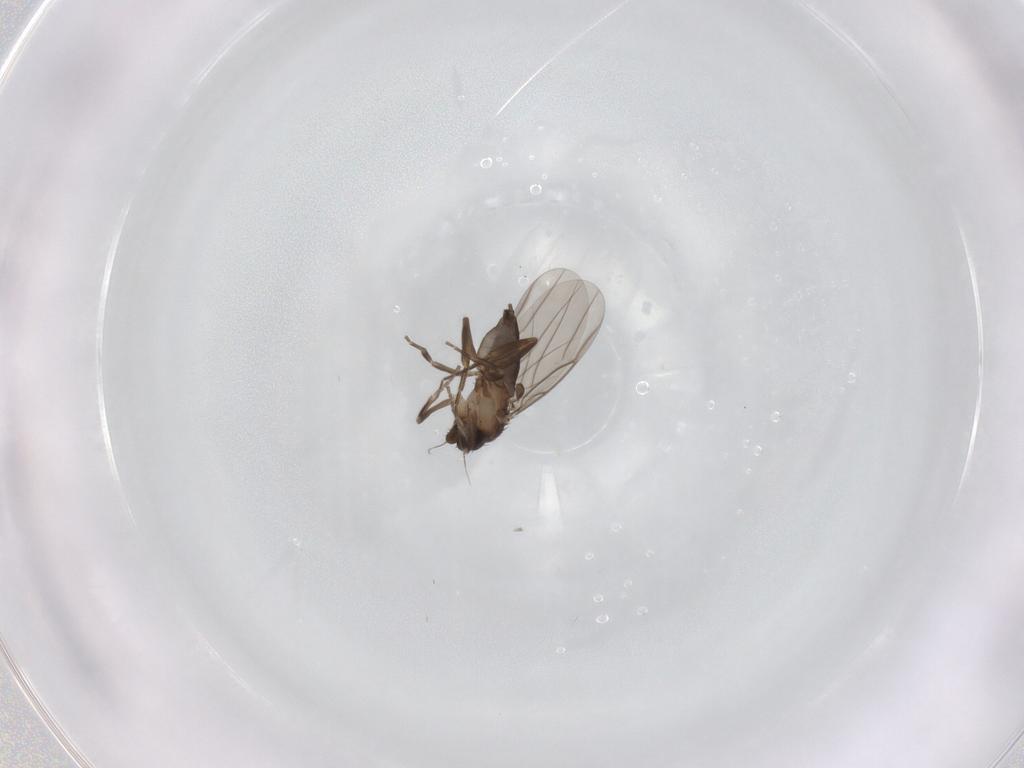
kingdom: Animalia
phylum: Arthropoda
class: Insecta
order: Diptera
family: Phoridae
